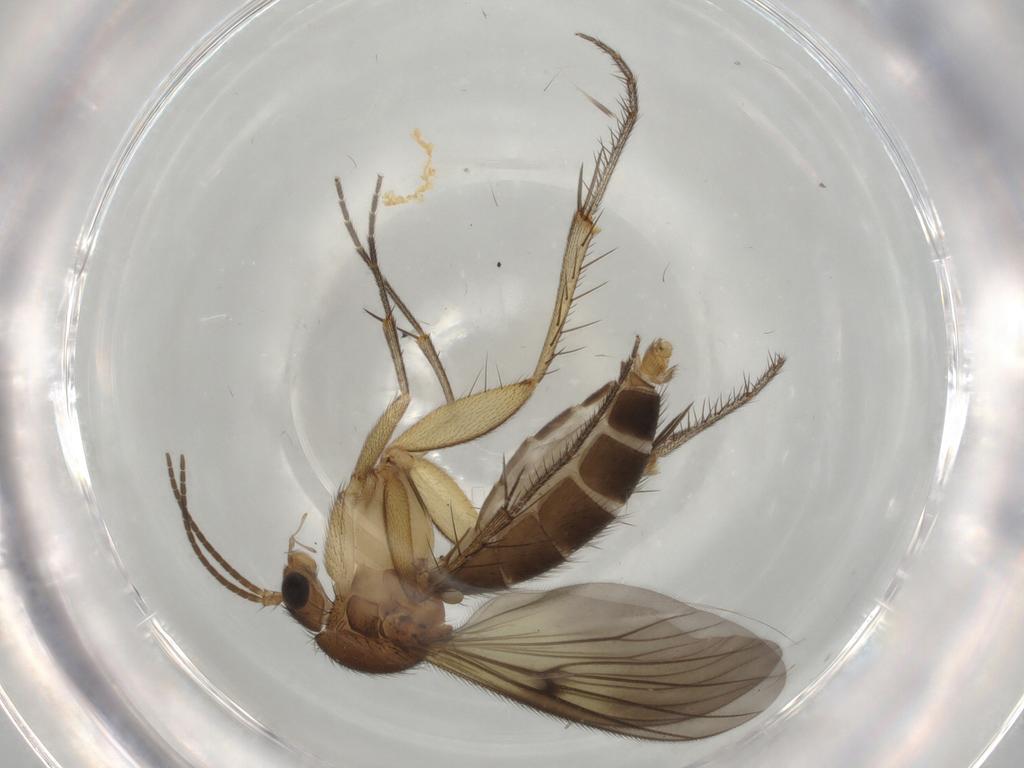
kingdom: Animalia
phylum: Arthropoda
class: Insecta
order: Diptera
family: Mycetophilidae
